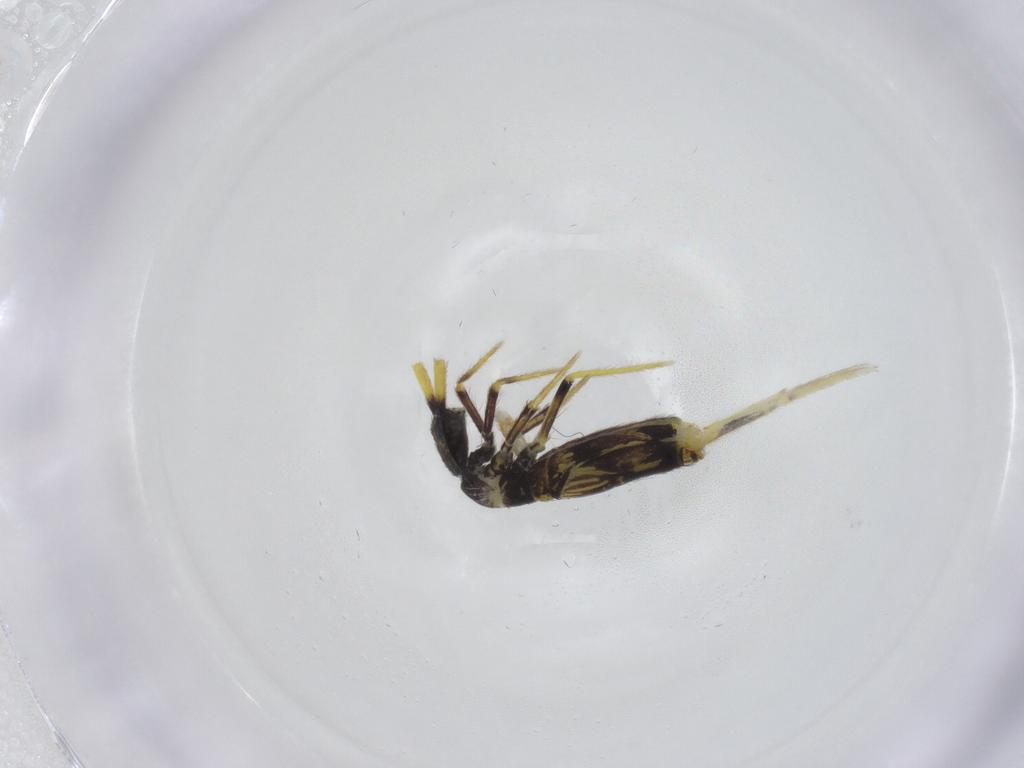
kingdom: Animalia
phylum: Arthropoda
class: Collembola
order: Entomobryomorpha
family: Entomobryidae
